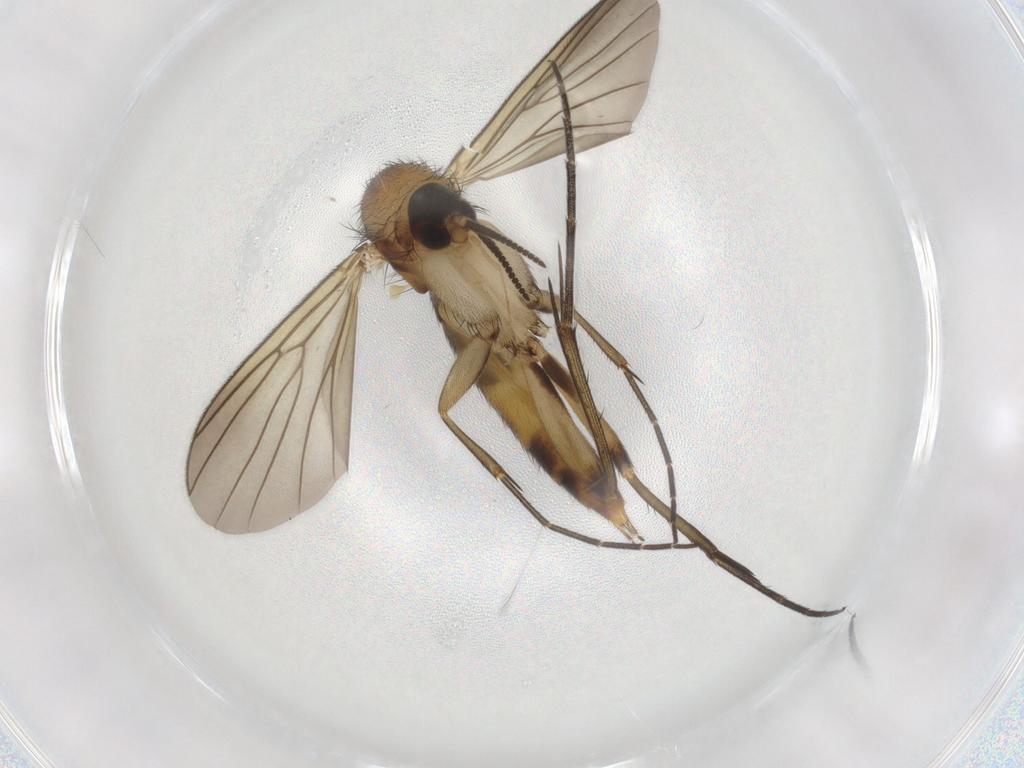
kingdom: Animalia
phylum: Arthropoda
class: Insecta
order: Diptera
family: Mycetophilidae
